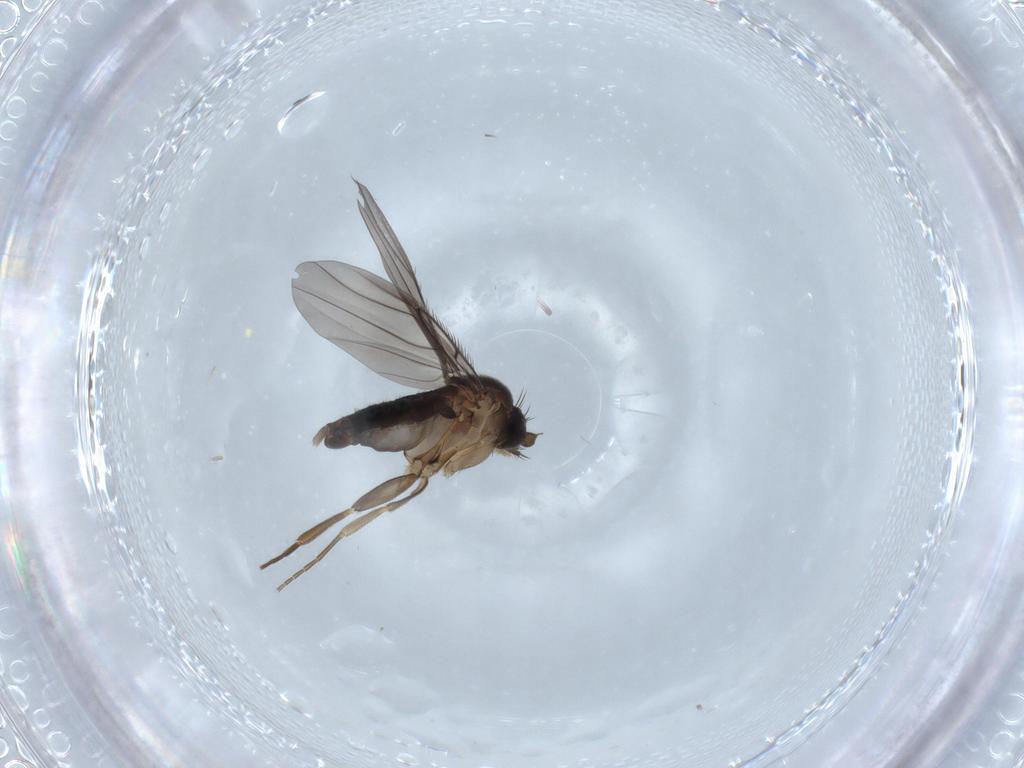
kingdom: Animalia
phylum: Arthropoda
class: Insecta
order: Diptera
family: Phoridae
